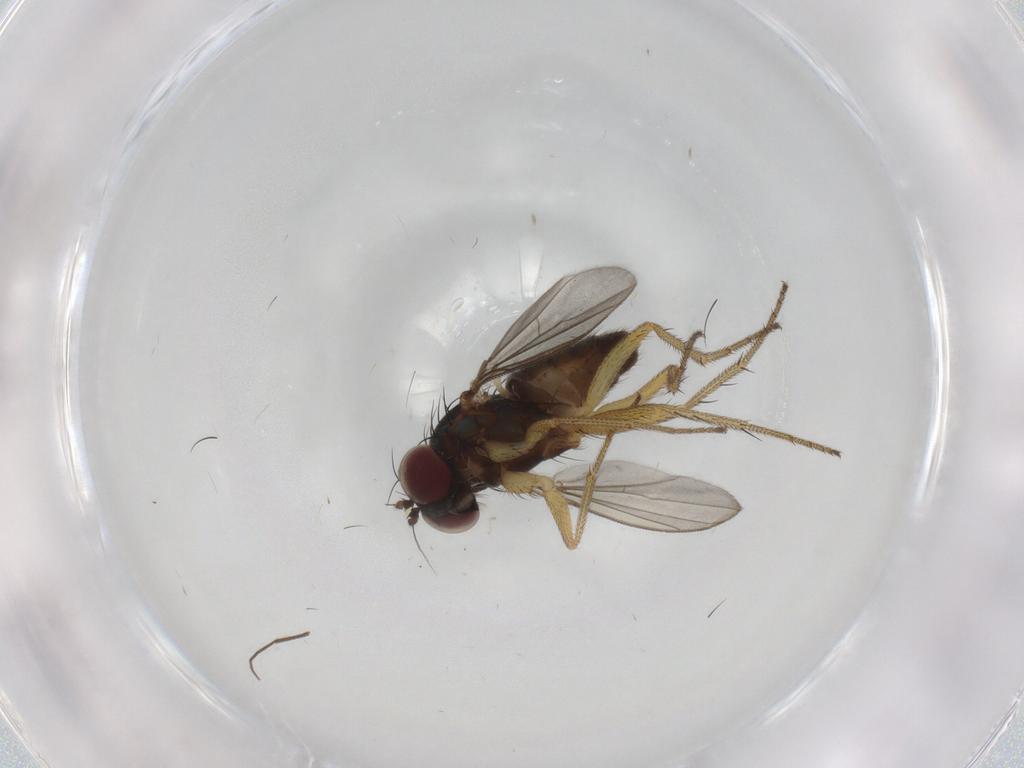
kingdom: Animalia
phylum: Arthropoda
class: Insecta
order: Diptera
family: Dolichopodidae
